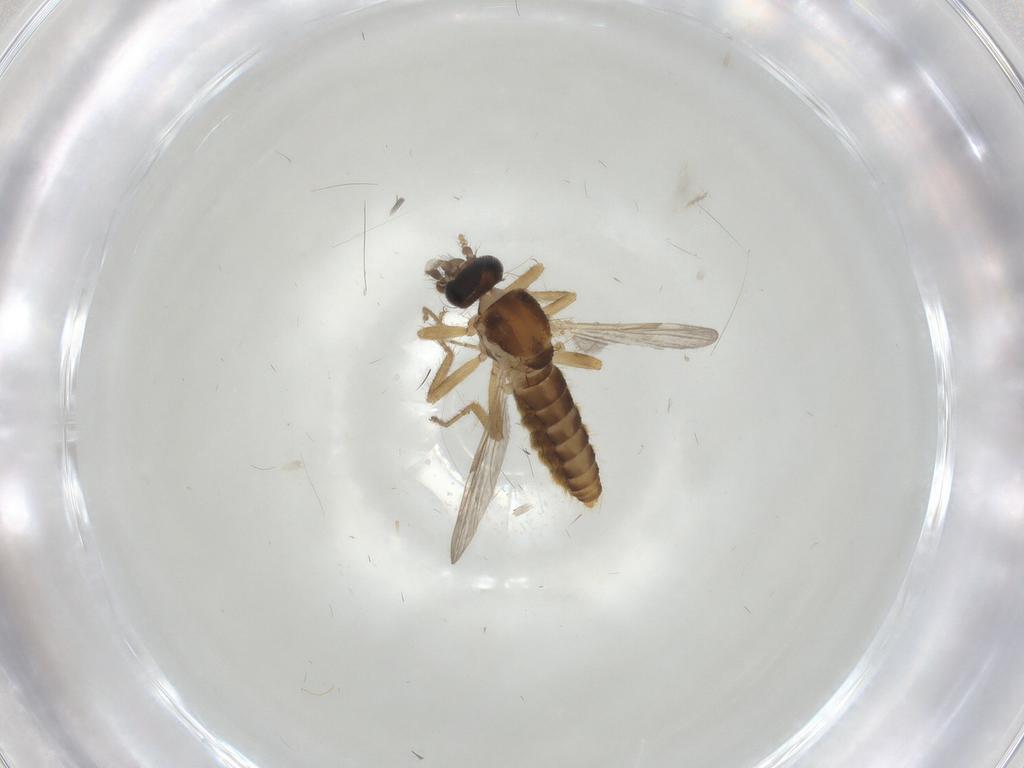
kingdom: Animalia
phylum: Arthropoda
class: Insecta
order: Diptera
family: Ceratopogonidae
